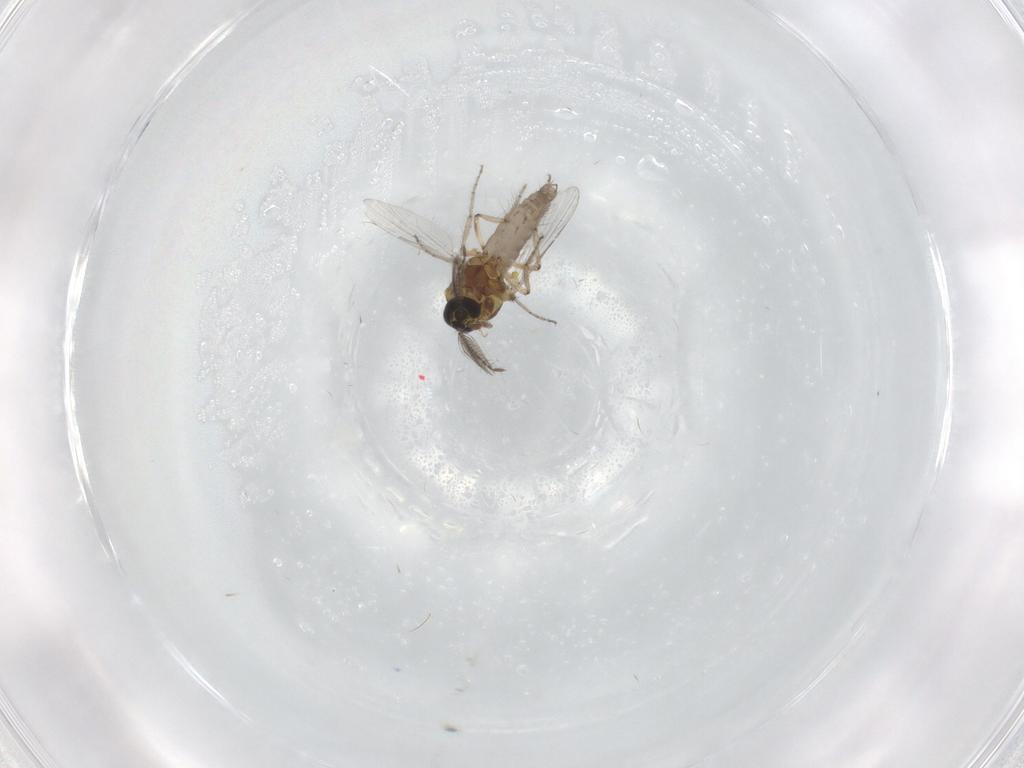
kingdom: Animalia
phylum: Arthropoda
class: Insecta
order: Diptera
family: Ceratopogonidae
